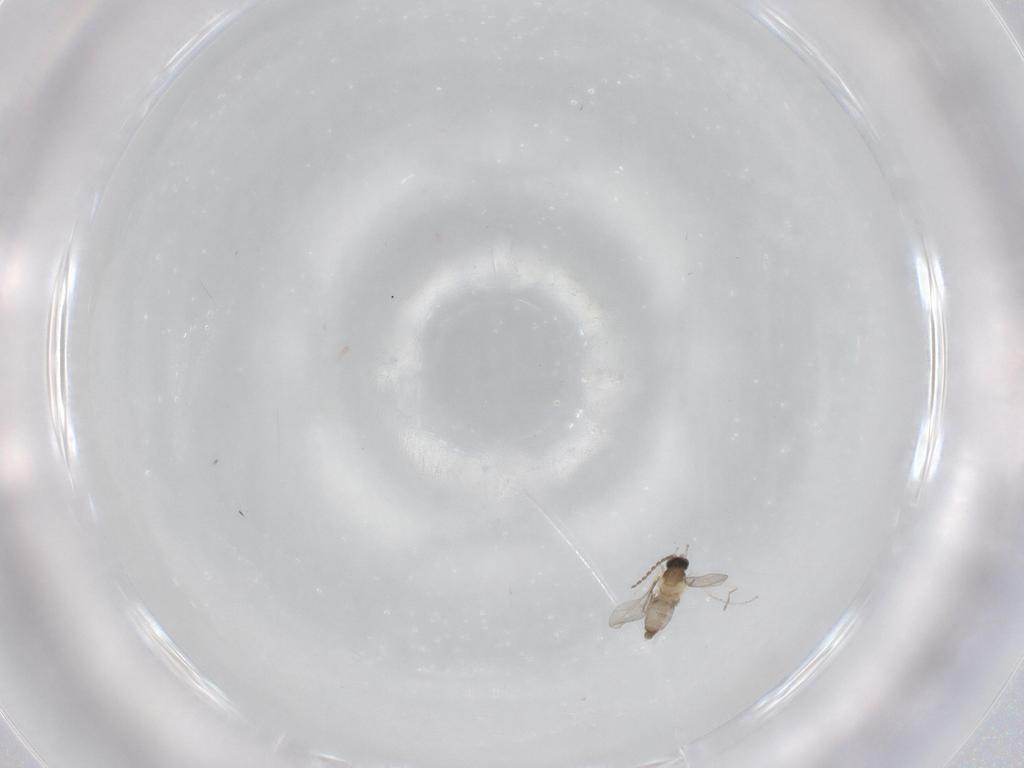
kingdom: Animalia
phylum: Arthropoda
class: Insecta
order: Diptera
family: Cecidomyiidae
